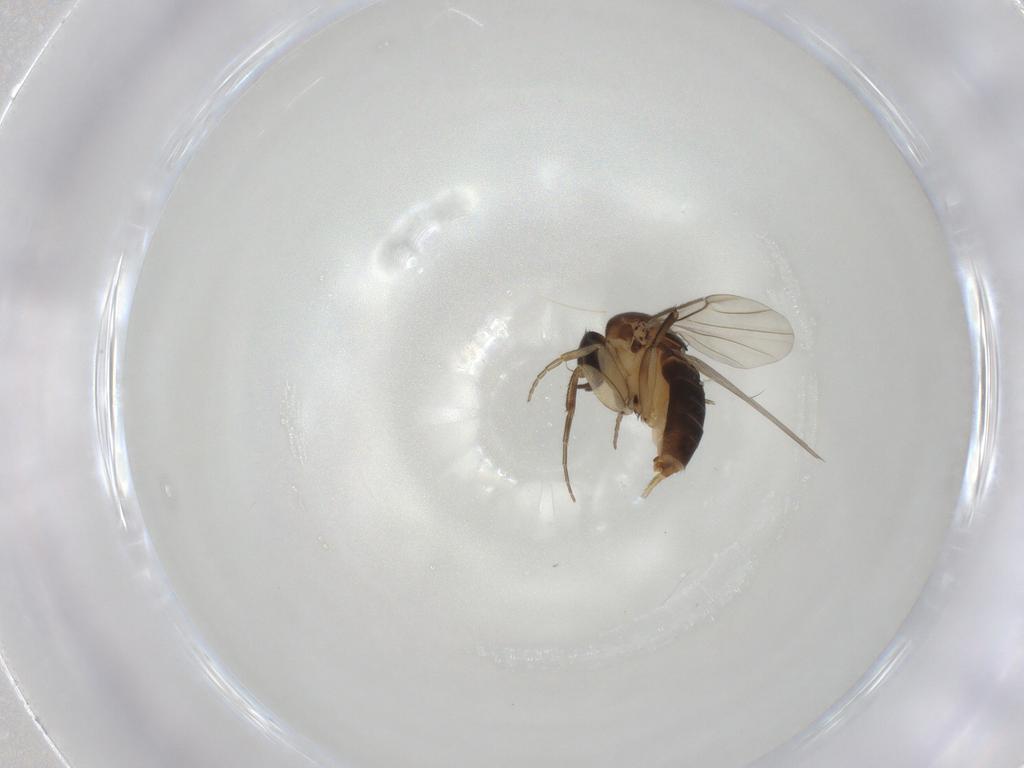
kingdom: Animalia
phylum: Arthropoda
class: Insecta
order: Diptera
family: Phoridae
